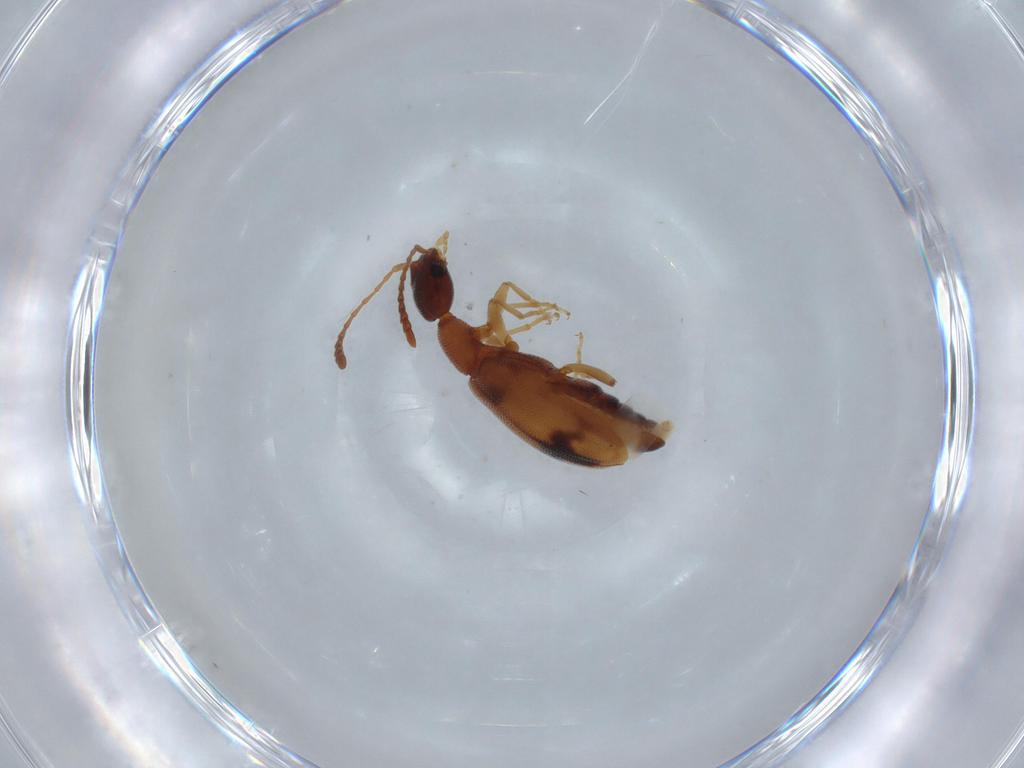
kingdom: Animalia
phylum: Arthropoda
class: Insecta
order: Coleoptera
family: Anthicidae
